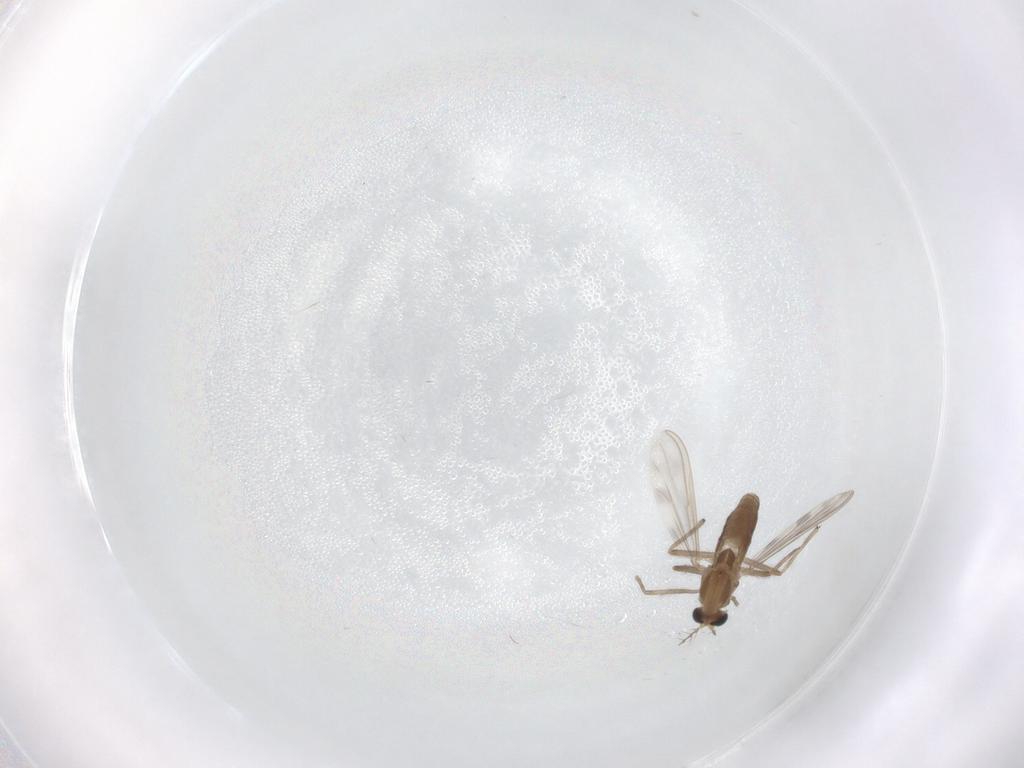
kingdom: Animalia
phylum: Arthropoda
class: Insecta
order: Diptera
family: Chironomidae
